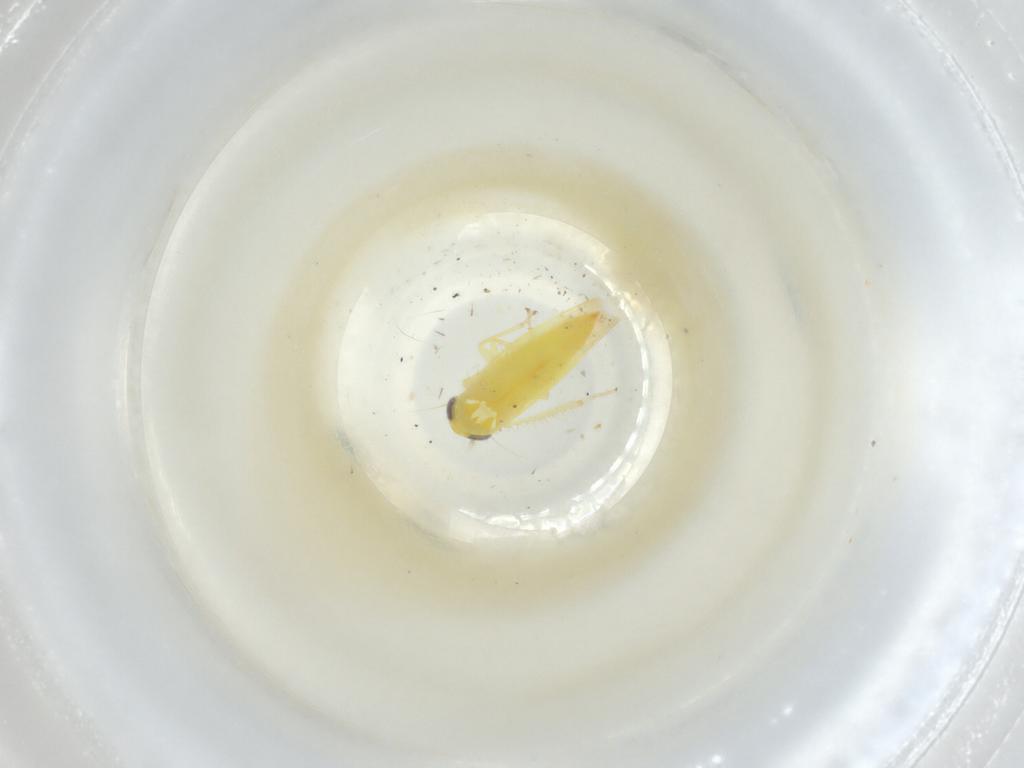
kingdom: Animalia
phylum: Arthropoda
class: Insecta
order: Hemiptera
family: Cicadellidae
